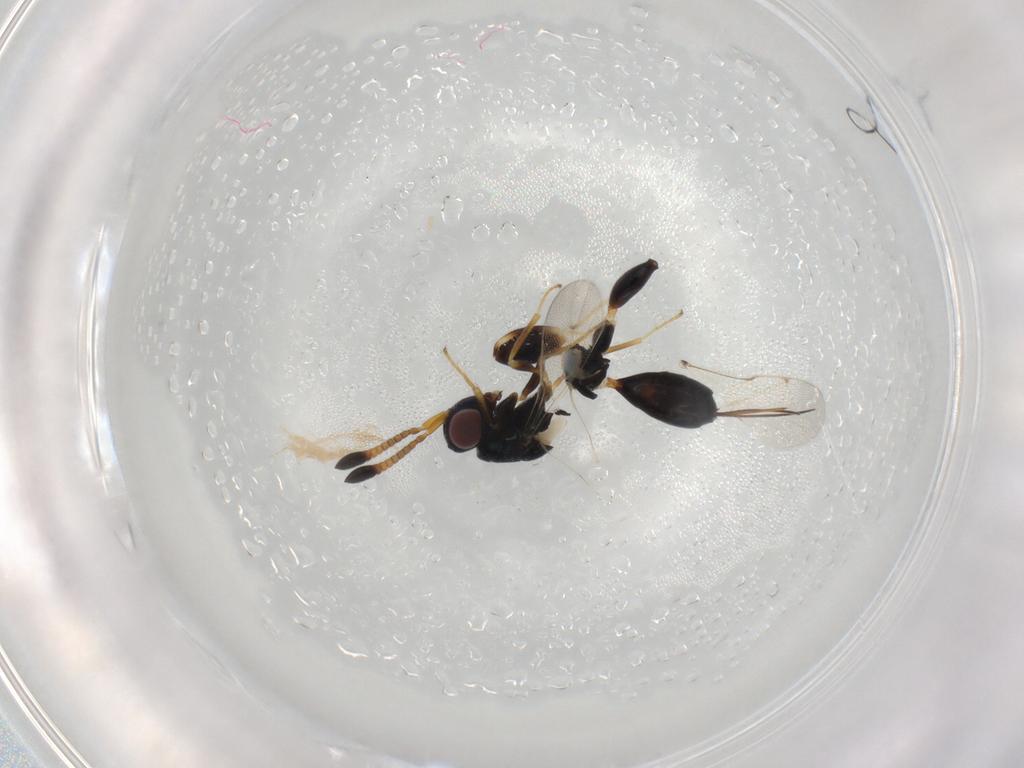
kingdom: Animalia
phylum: Arthropoda
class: Insecta
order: Hymenoptera
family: Torymidae
